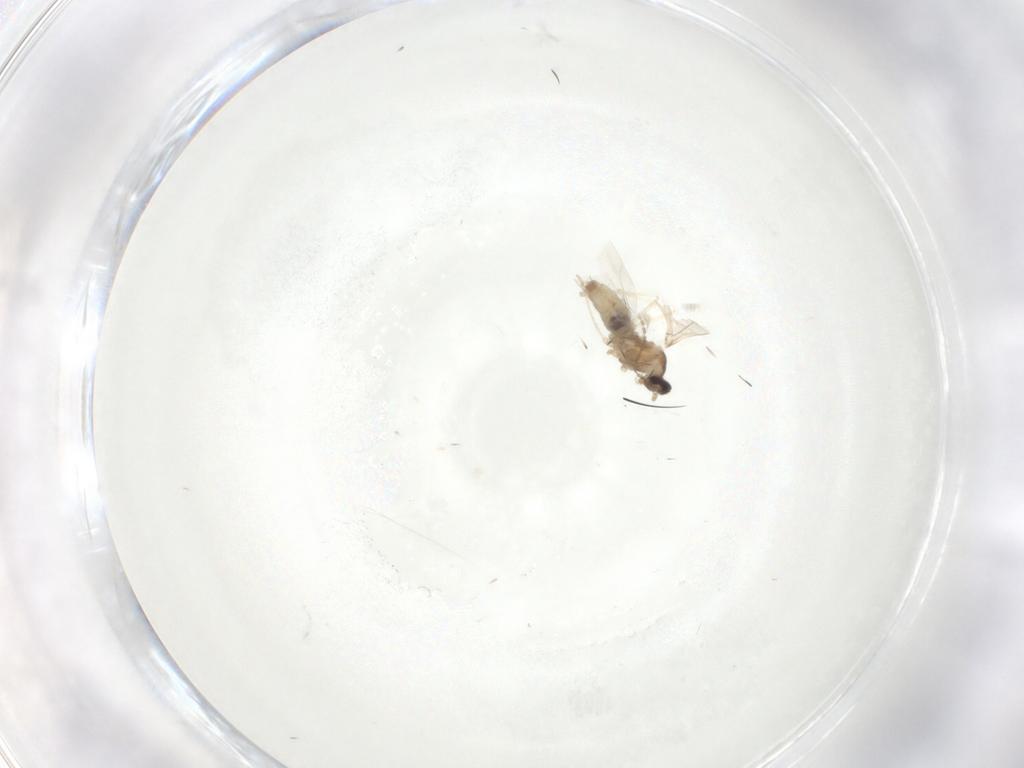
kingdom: Animalia
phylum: Arthropoda
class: Insecta
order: Diptera
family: Cecidomyiidae
